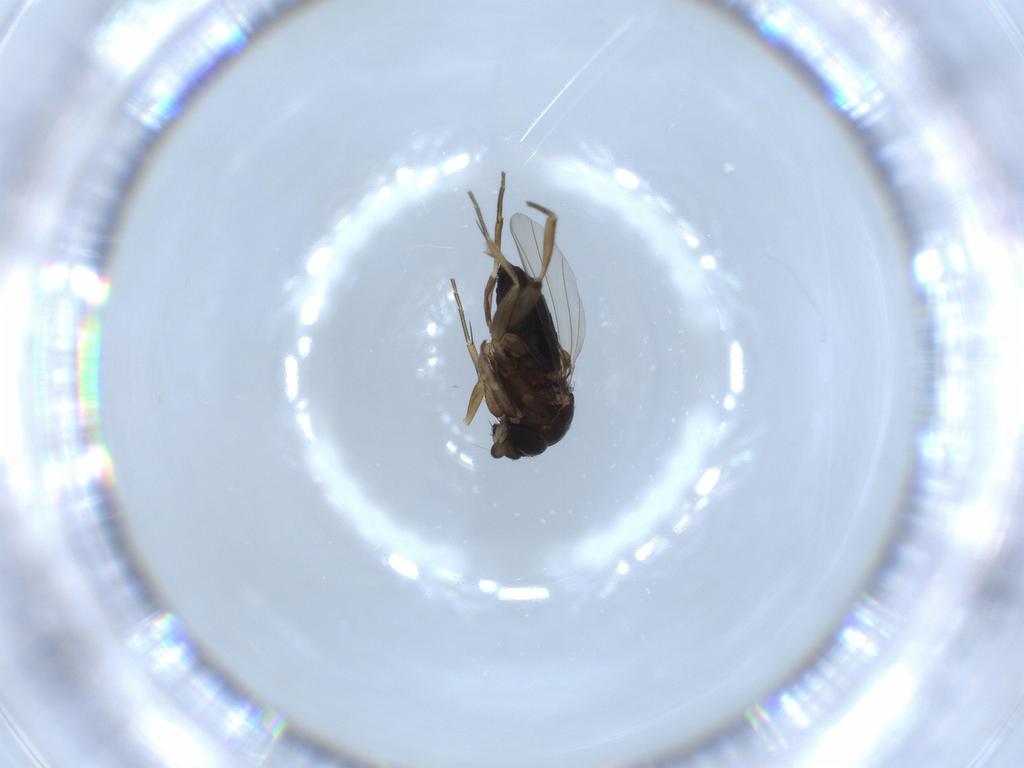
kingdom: Animalia
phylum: Arthropoda
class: Insecta
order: Diptera
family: Phoridae
